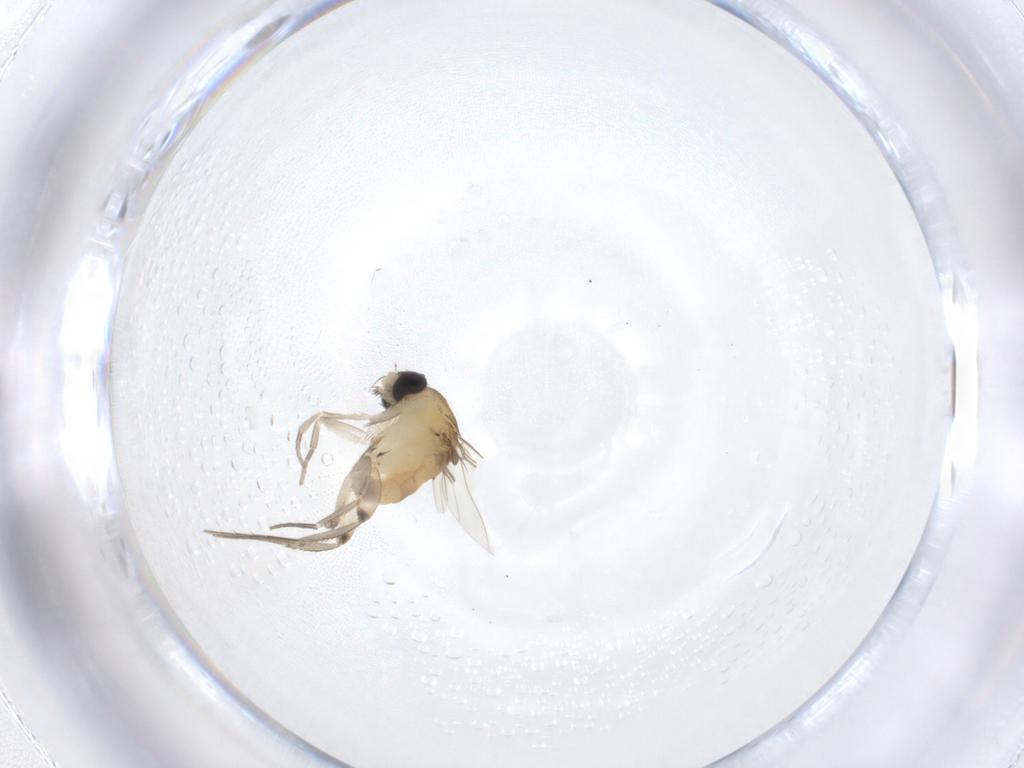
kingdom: Animalia
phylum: Arthropoda
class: Insecta
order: Diptera
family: Phoridae
